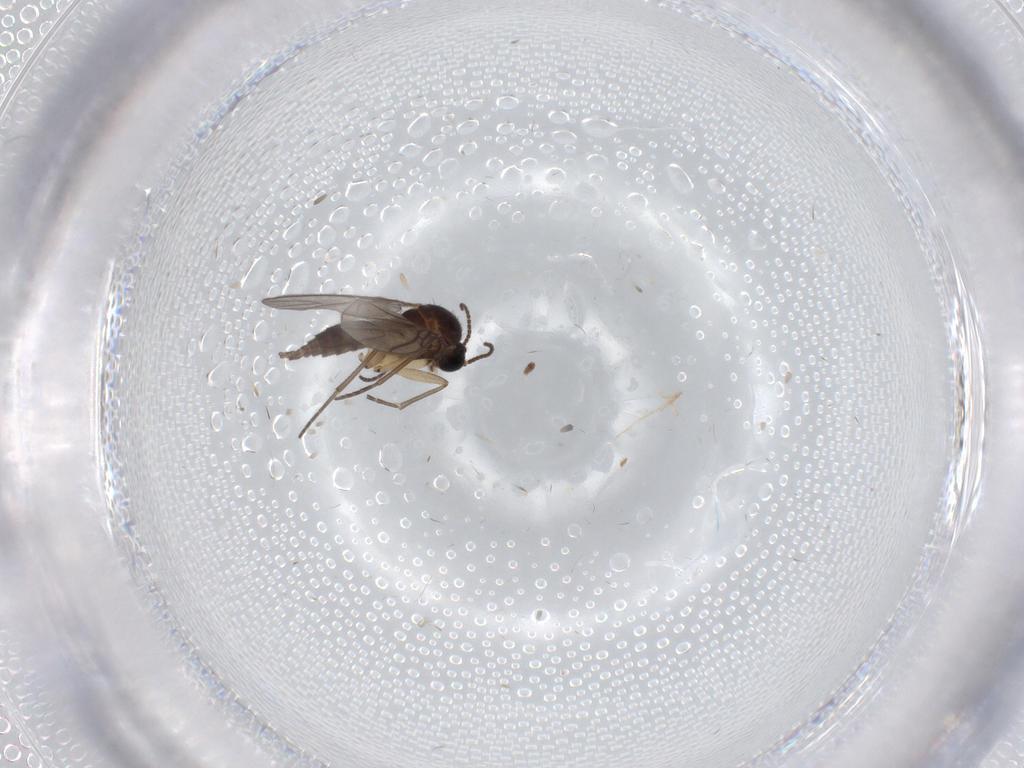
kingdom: Animalia
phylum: Arthropoda
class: Insecta
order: Diptera
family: Sciaridae
